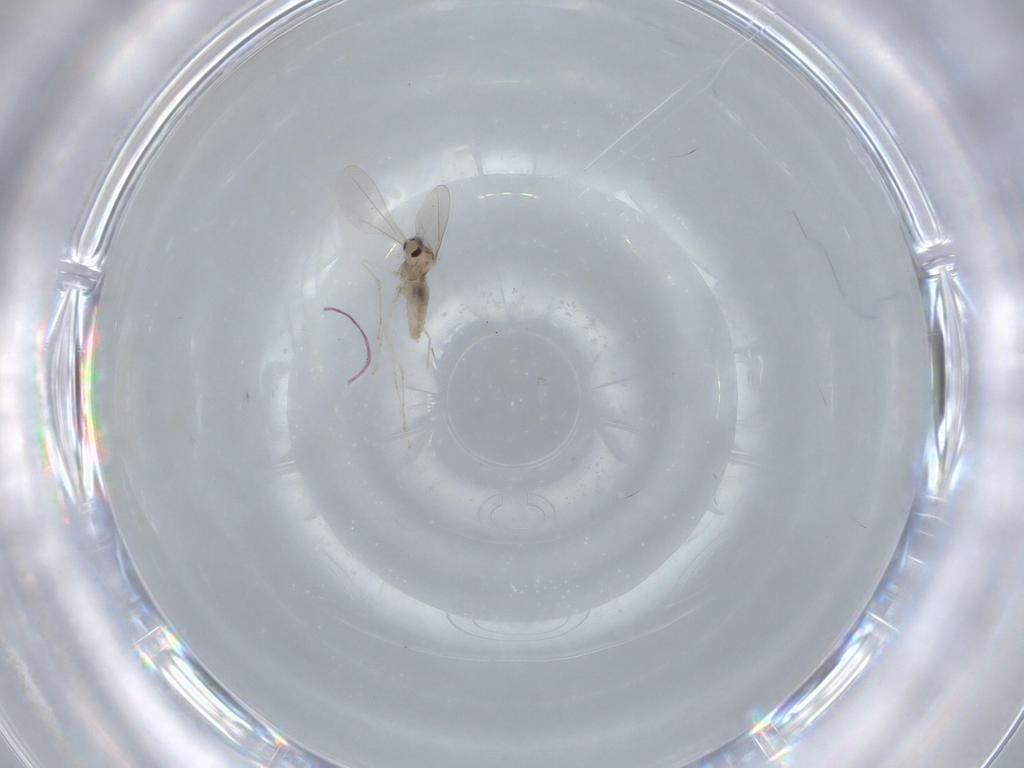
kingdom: Animalia
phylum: Arthropoda
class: Insecta
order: Diptera
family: Cecidomyiidae
